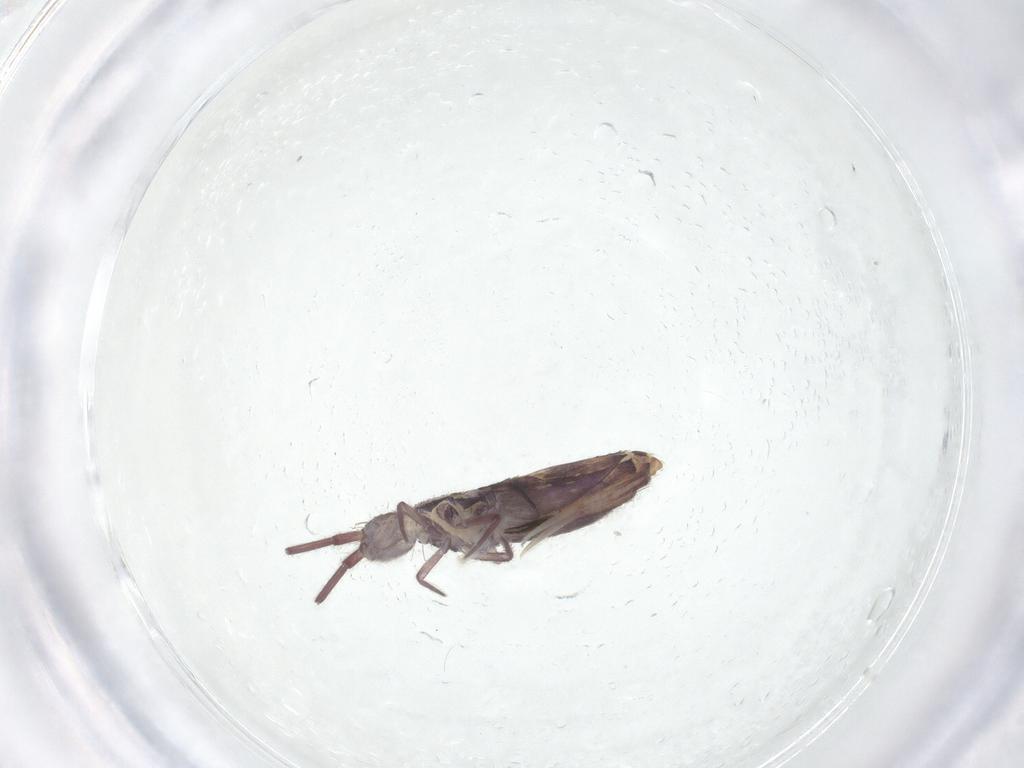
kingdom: Animalia
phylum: Arthropoda
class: Collembola
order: Entomobryomorpha
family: Entomobryidae
